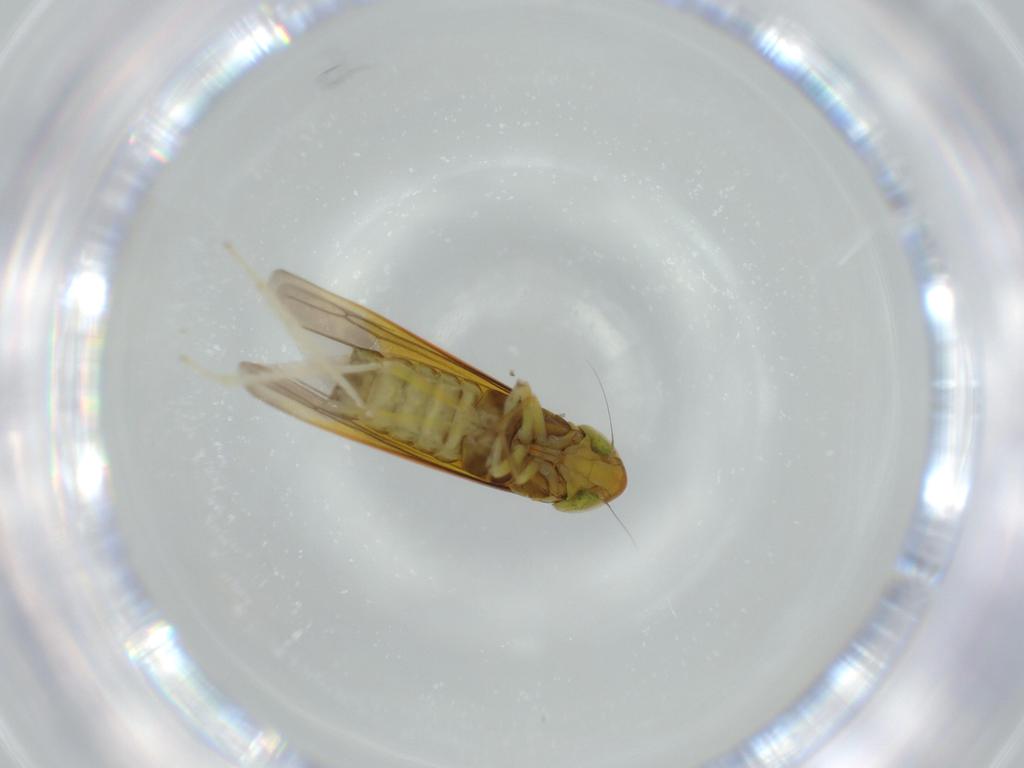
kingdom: Animalia
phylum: Arthropoda
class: Insecta
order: Hemiptera
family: Cicadellidae
